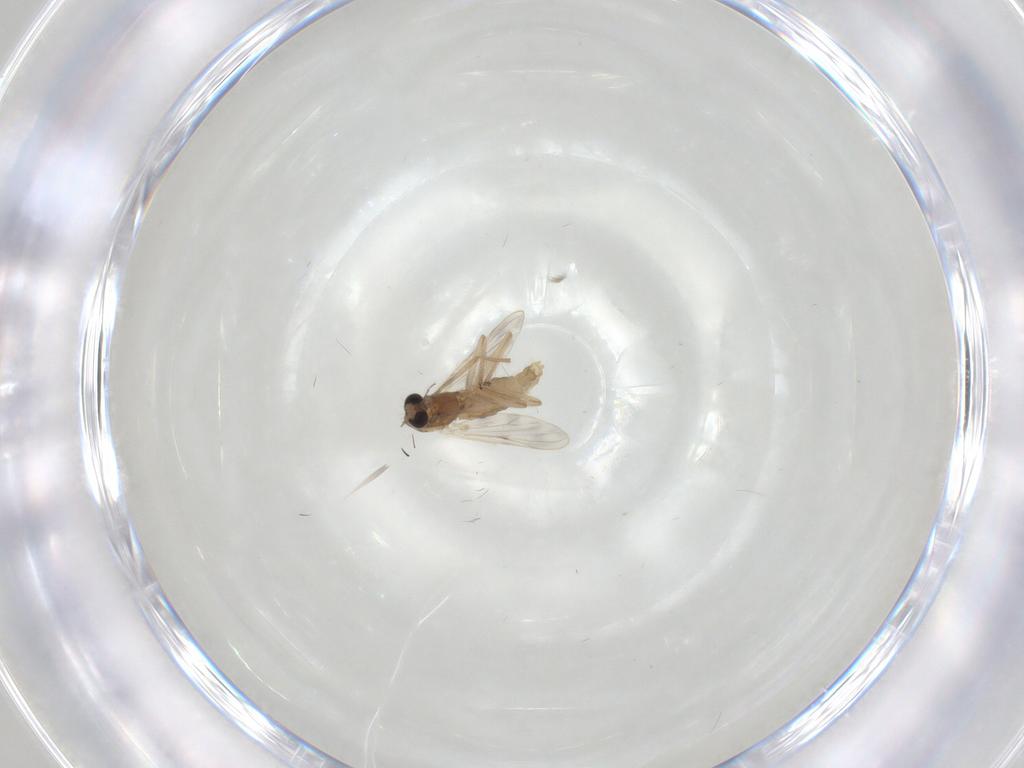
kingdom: Animalia
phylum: Arthropoda
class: Insecta
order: Diptera
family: Chironomidae
